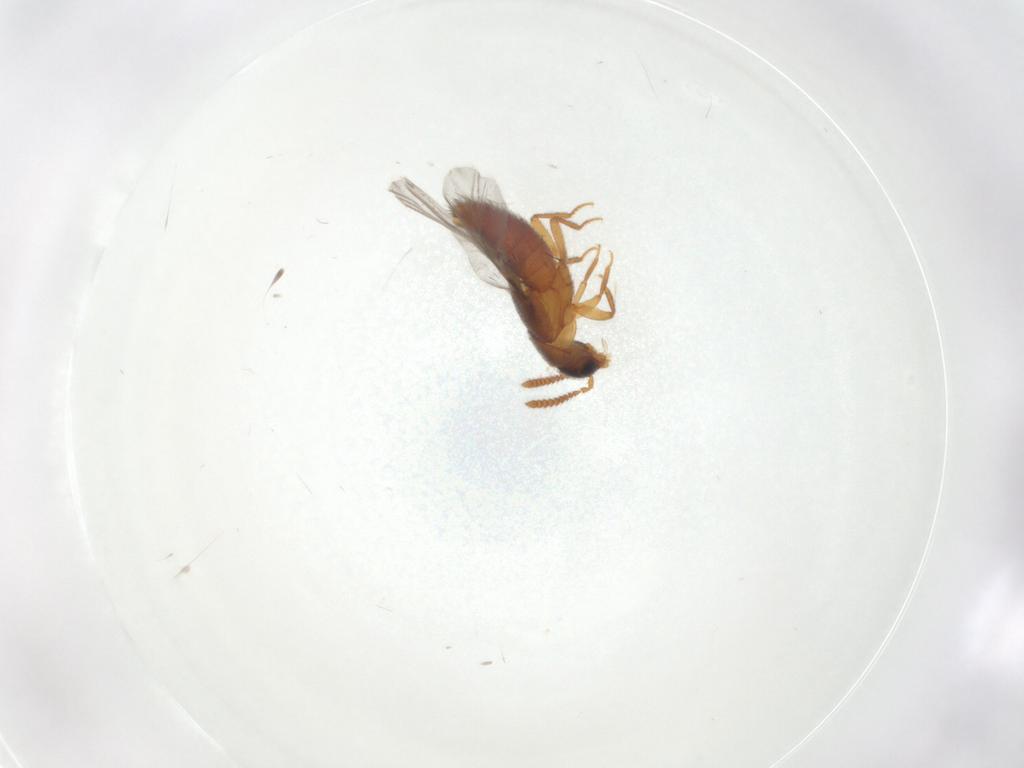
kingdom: Animalia
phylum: Arthropoda
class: Insecta
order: Coleoptera
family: Staphylinidae
